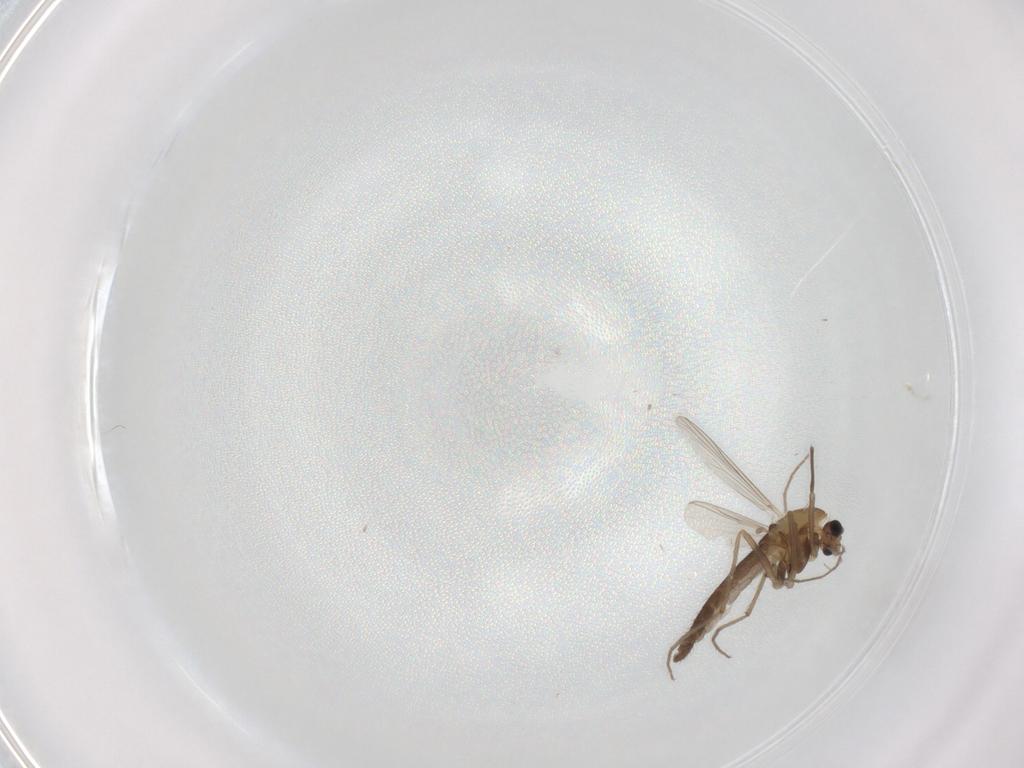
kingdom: Animalia
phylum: Arthropoda
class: Insecta
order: Diptera
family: Chironomidae
